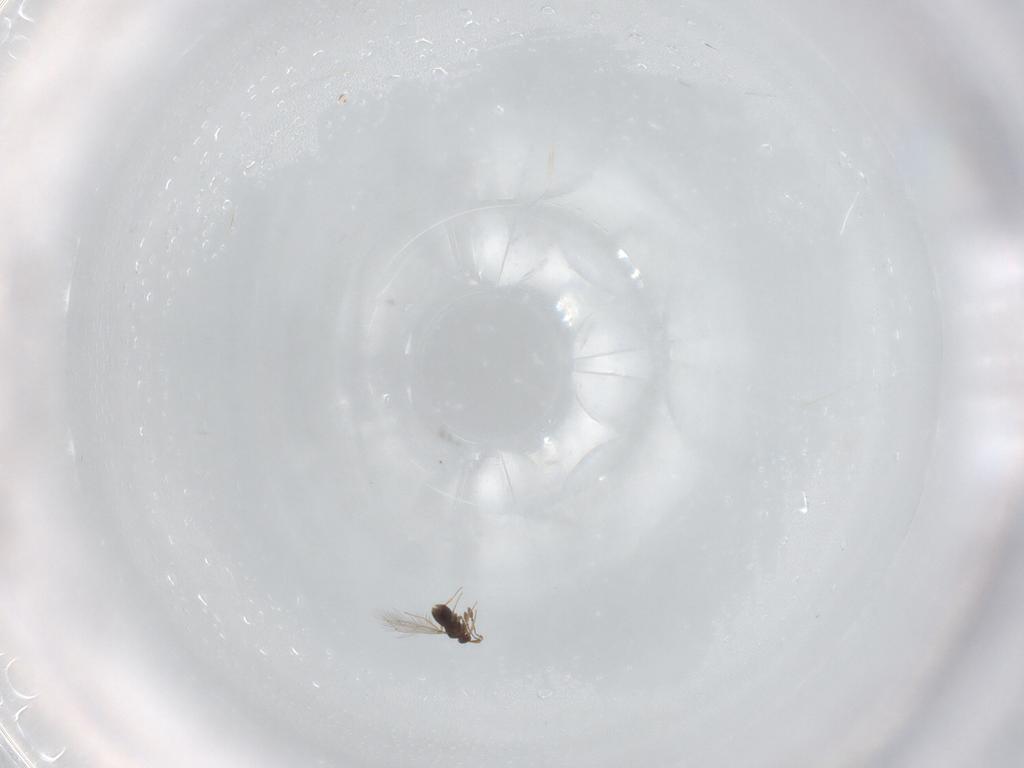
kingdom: Animalia
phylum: Arthropoda
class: Insecta
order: Hymenoptera
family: Mymaridae
